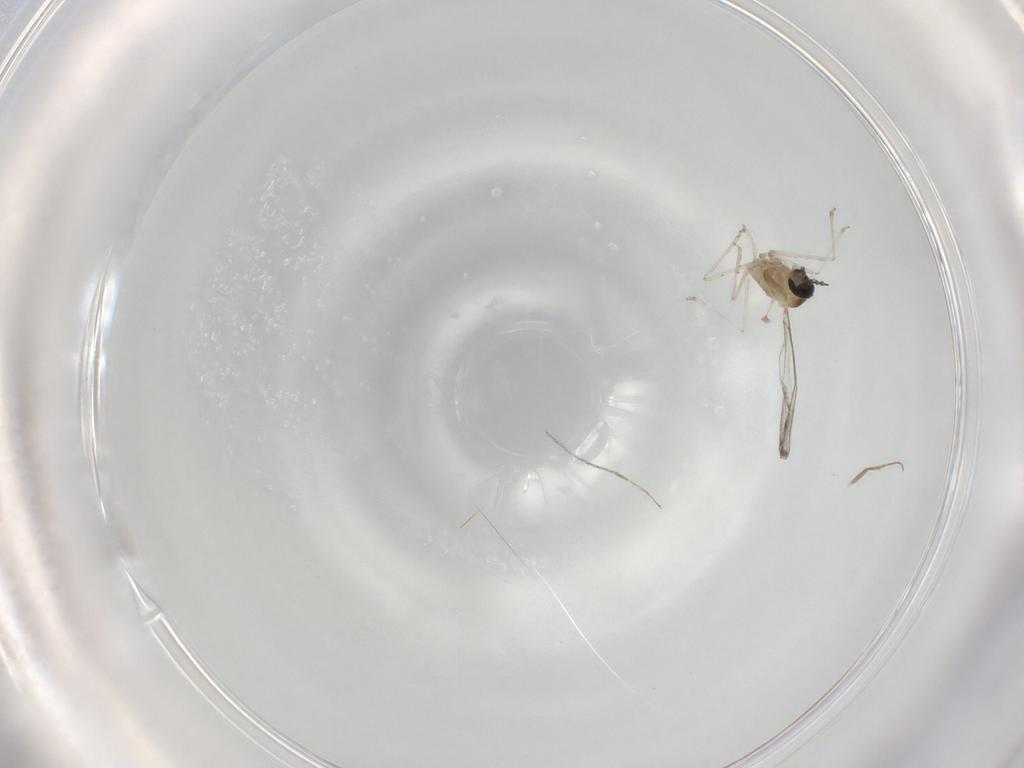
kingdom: Animalia
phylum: Arthropoda
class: Insecta
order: Diptera
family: Cecidomyiidae
